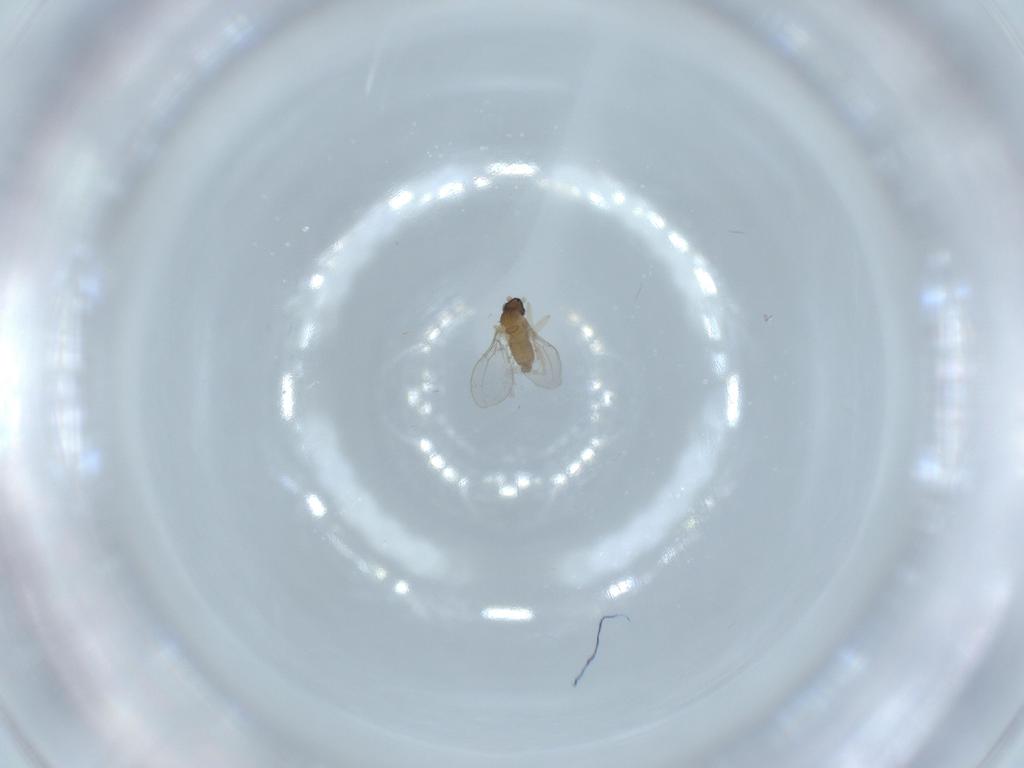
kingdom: Animalia
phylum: Arthropoda
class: Insecta
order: Diptera
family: Cecidomyiidae
